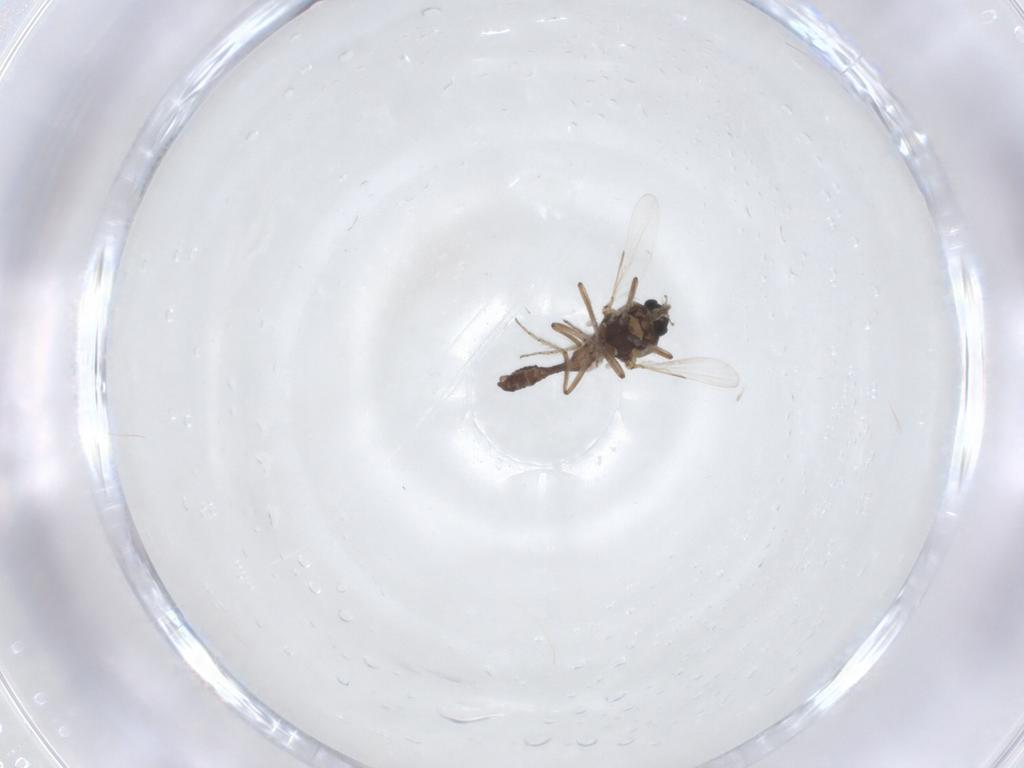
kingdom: Animalia
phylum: Arthropoda
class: Insecta
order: Diptera
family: Ceratopogonidae
